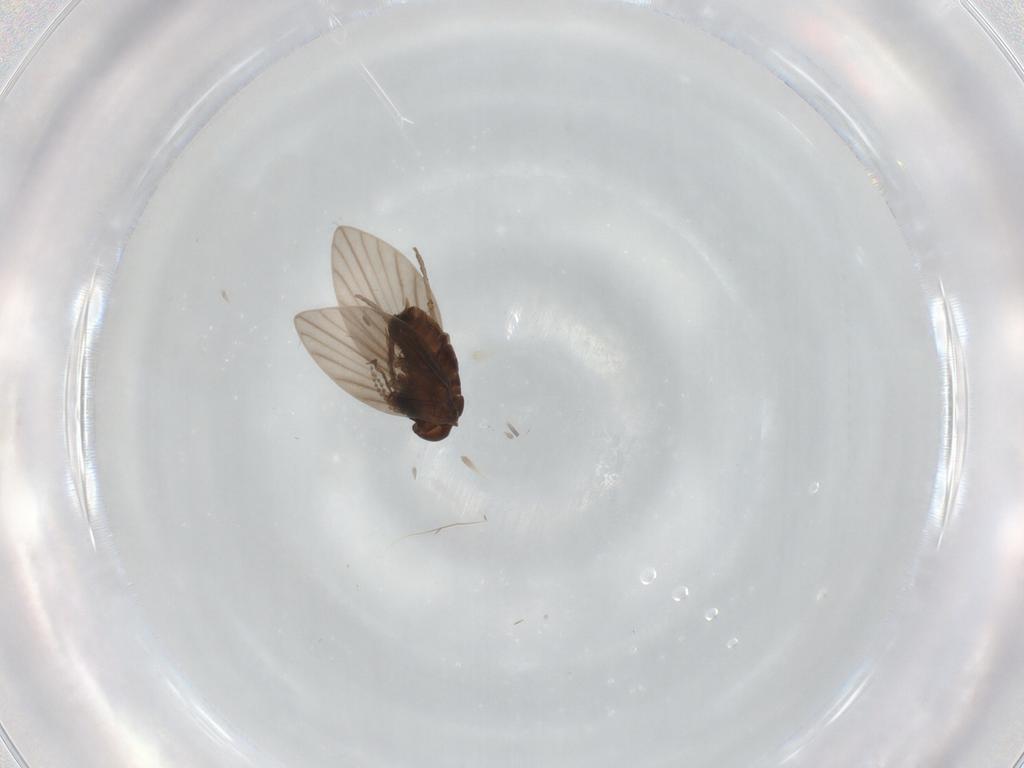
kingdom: Animalia
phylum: Arthropoda
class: Insecta
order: Diptera
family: Psychodidae
